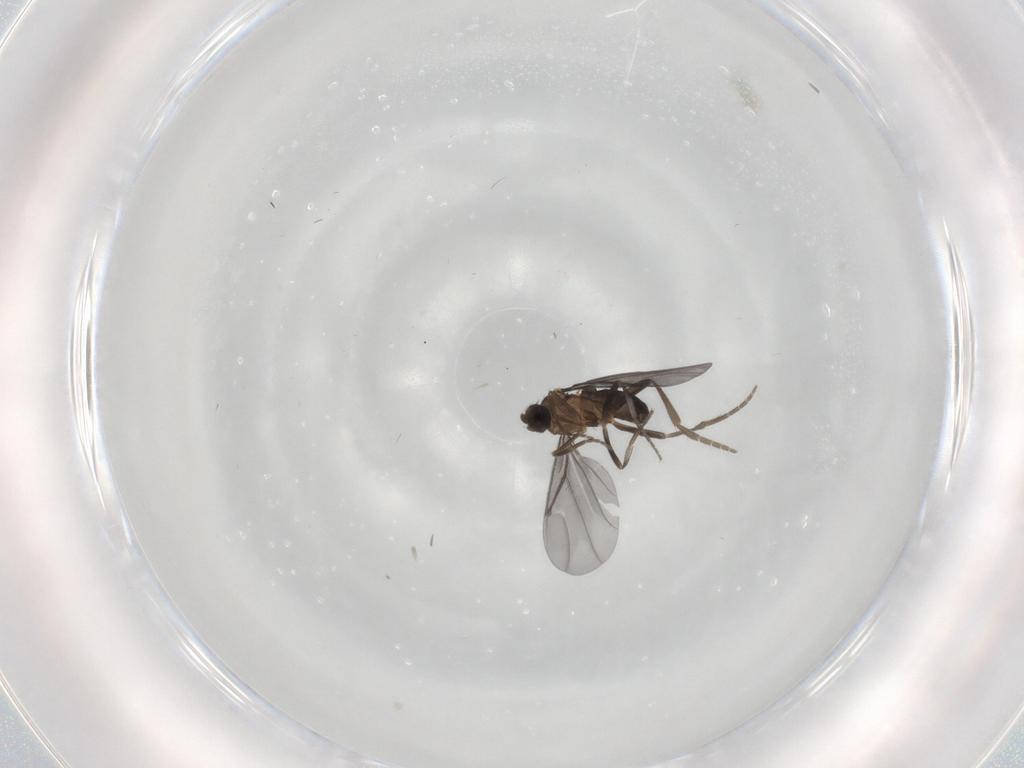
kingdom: Animalia
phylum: Arthropoda
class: Insecta
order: Diptera
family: Phoridae
